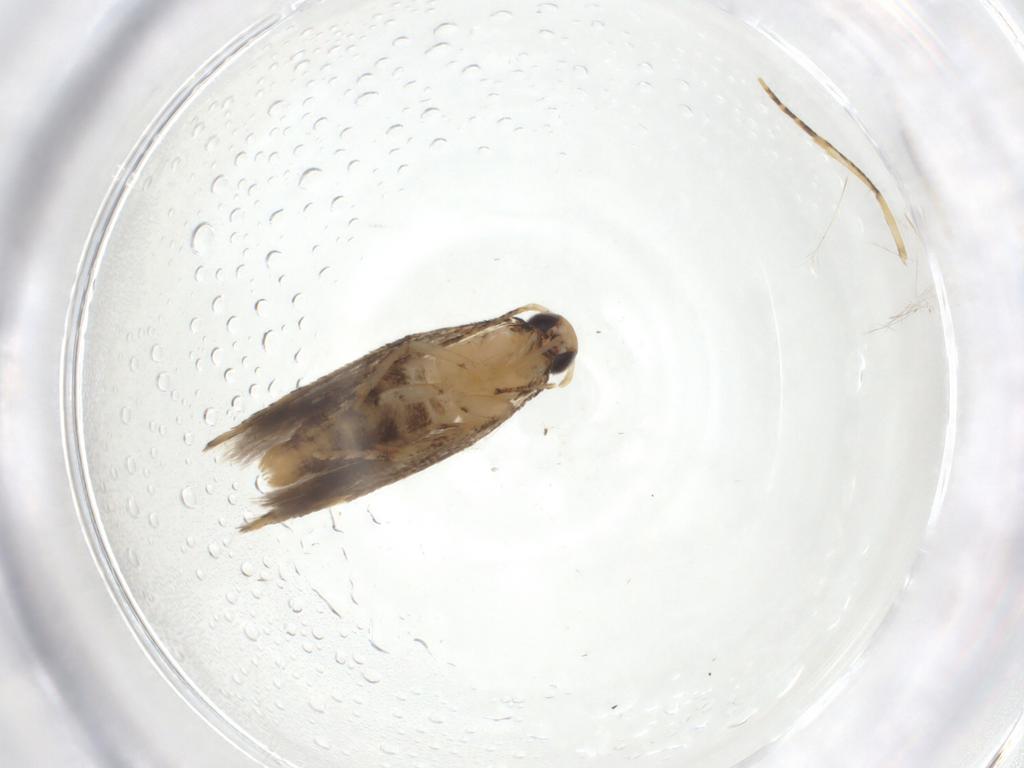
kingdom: Animalia
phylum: Arthropoda
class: Insecta
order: Lepidoptera
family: Gelechiidae
